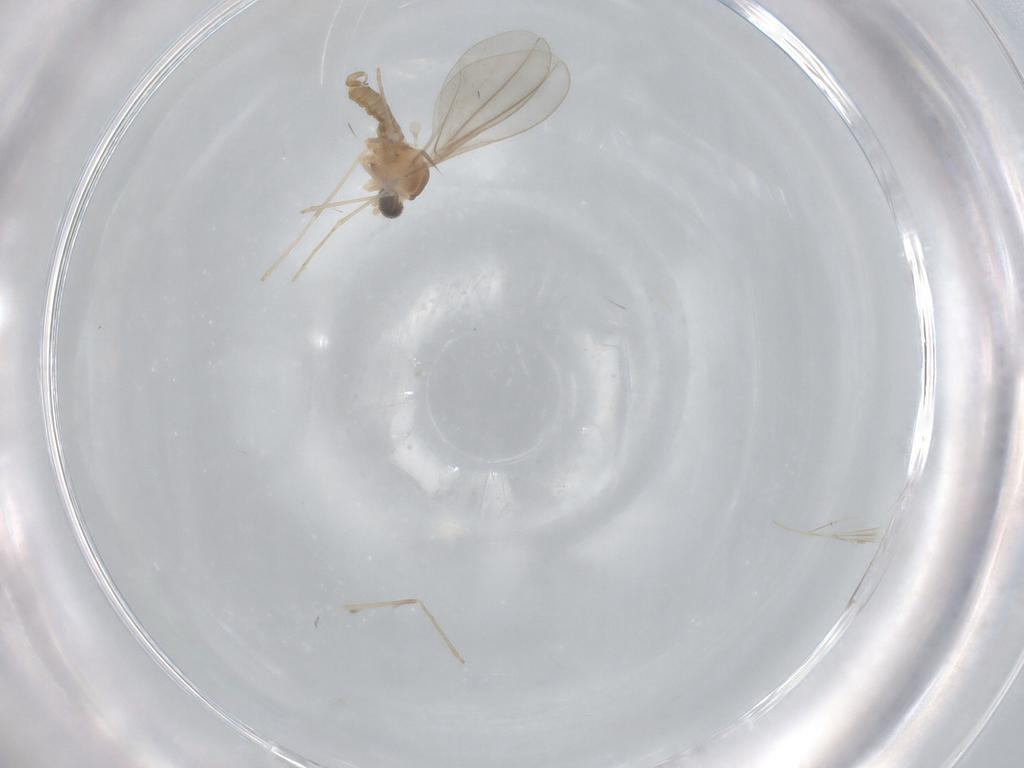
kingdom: Animalia
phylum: Arthropoda
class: Insecta
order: Diptera
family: Cecidomyiidae
